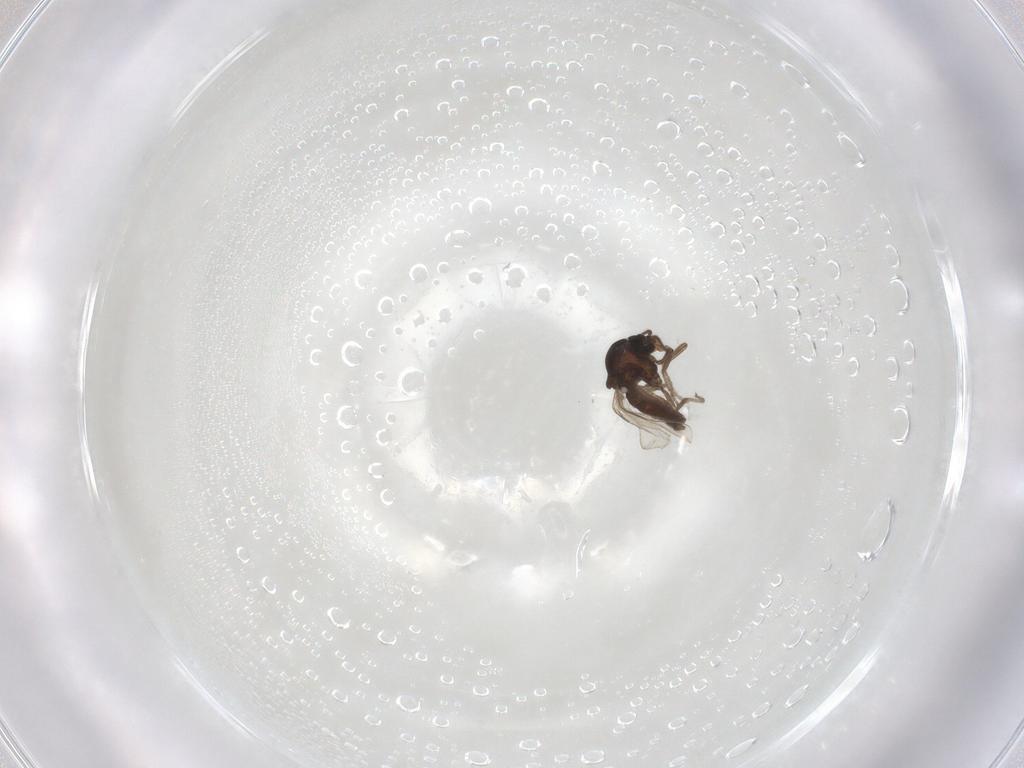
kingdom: Animalia
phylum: Arthropoda
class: Insecta
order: Diptera
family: Ceratopogonidae
